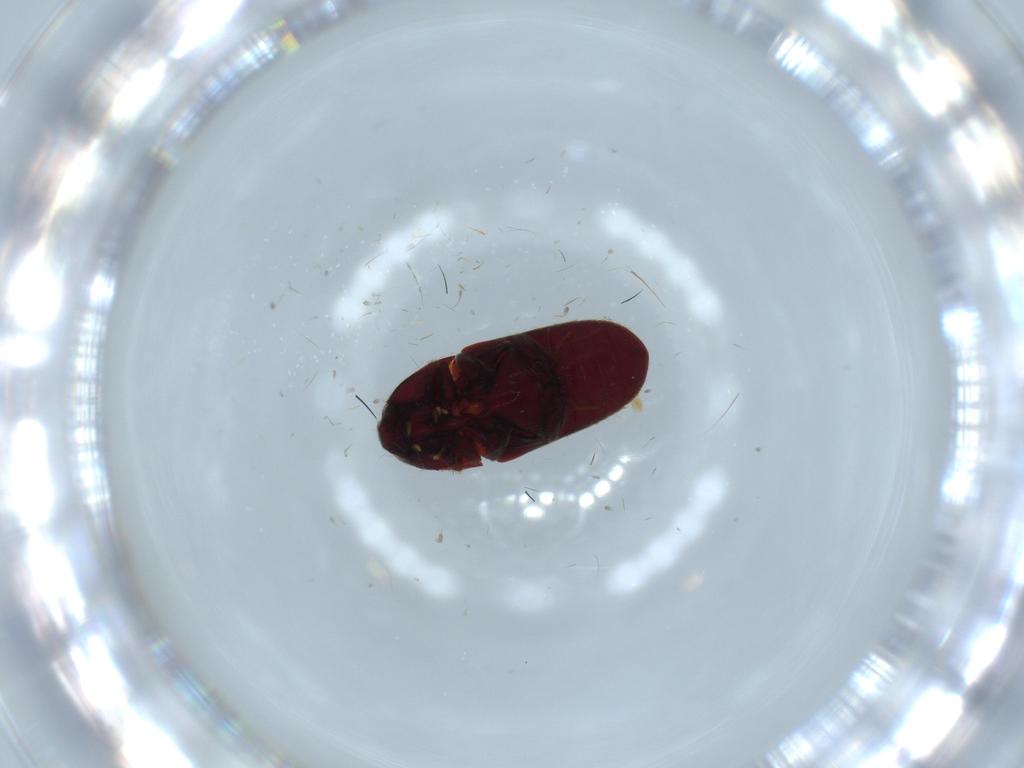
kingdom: Animalia
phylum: Arthropoda
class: Insecta
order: Coleoptera
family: Throscidae
